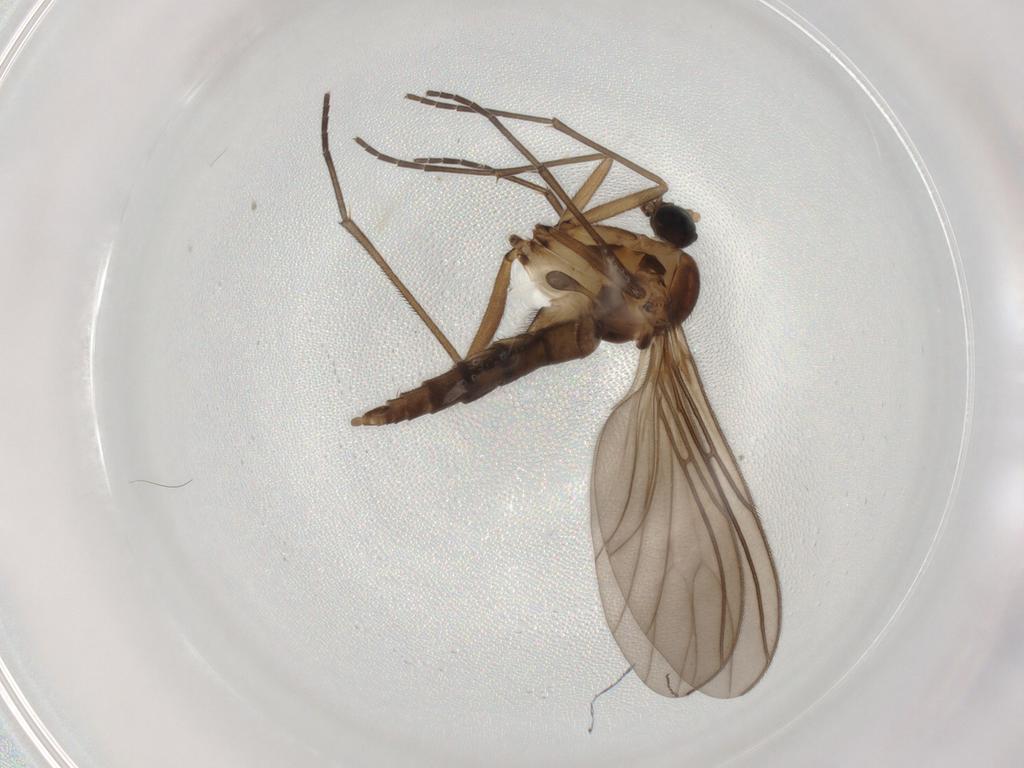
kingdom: Animalia
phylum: Arthropoda
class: Insecta
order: Diptera
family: Sciaridae
